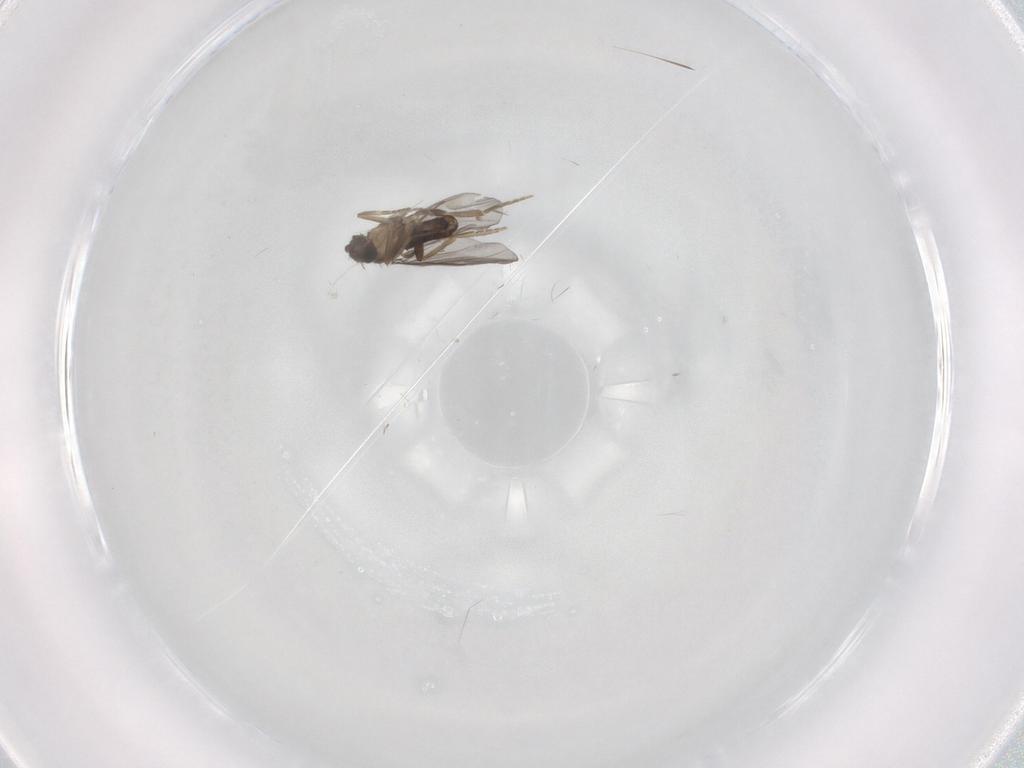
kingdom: Animalia
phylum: Arthropoda
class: Insecta
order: Diptera
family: Chironomidae
